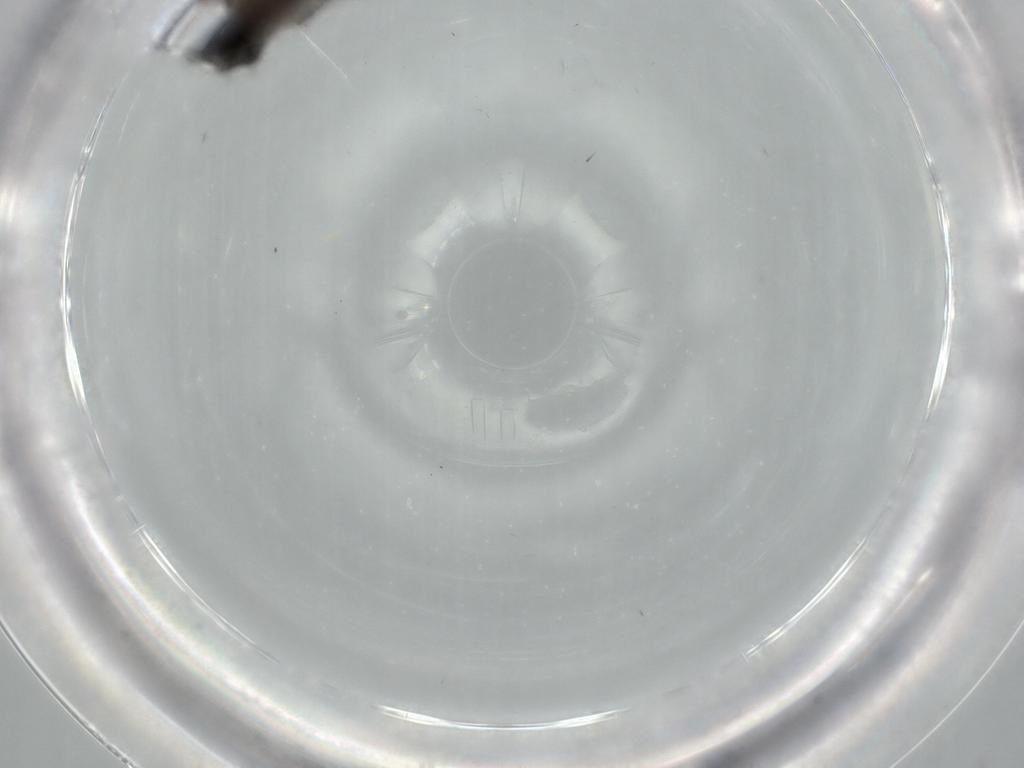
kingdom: Animalia
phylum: Arthropoda
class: Insecta
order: Diptera
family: Sciaridae
